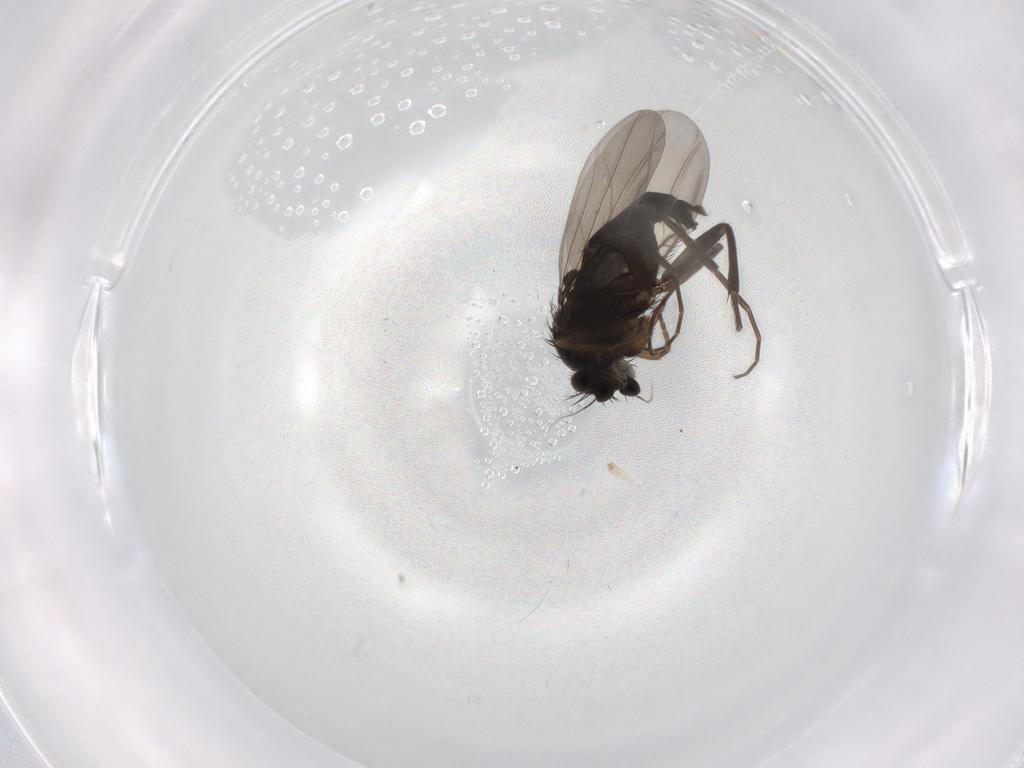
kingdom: Animalia
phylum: Arthropoda
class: Insecta
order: Diptera
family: Phoridae
